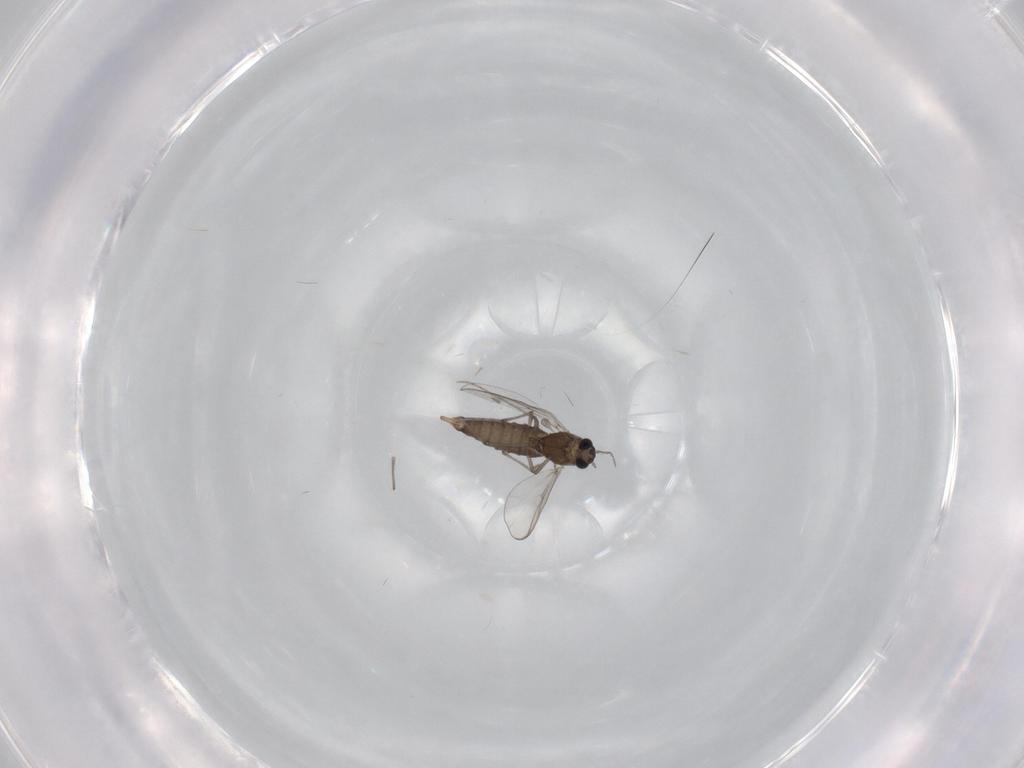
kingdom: Animalia
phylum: Arthropoda
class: Insecta
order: Diptera
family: Chironomidae
